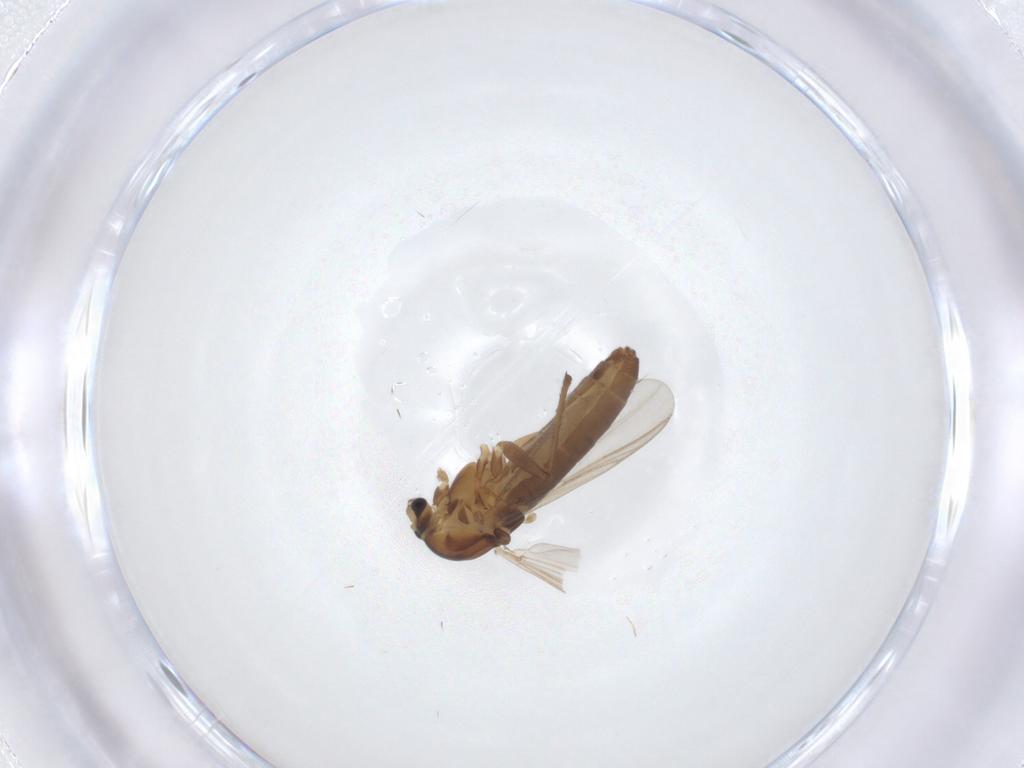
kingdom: Animalia
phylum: Arthropoda
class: Insecta
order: Diptera
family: Chironomidae
